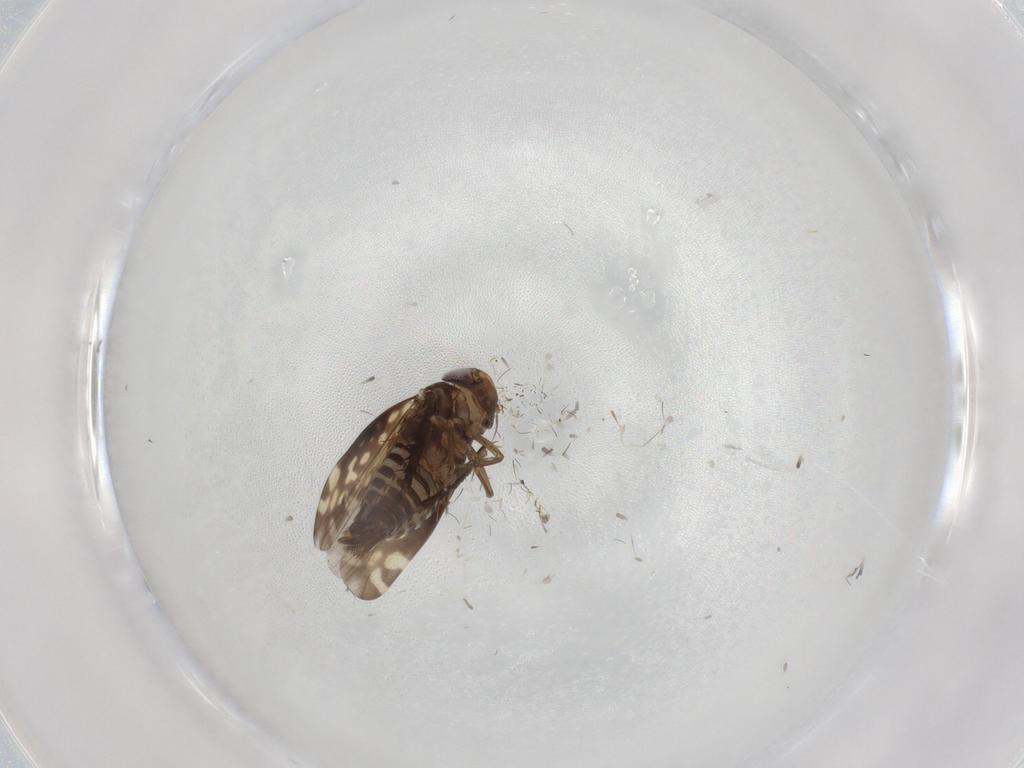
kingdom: Animalia
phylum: Arthropoda
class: Insecta
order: Hemiptera
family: Cicadellidae
